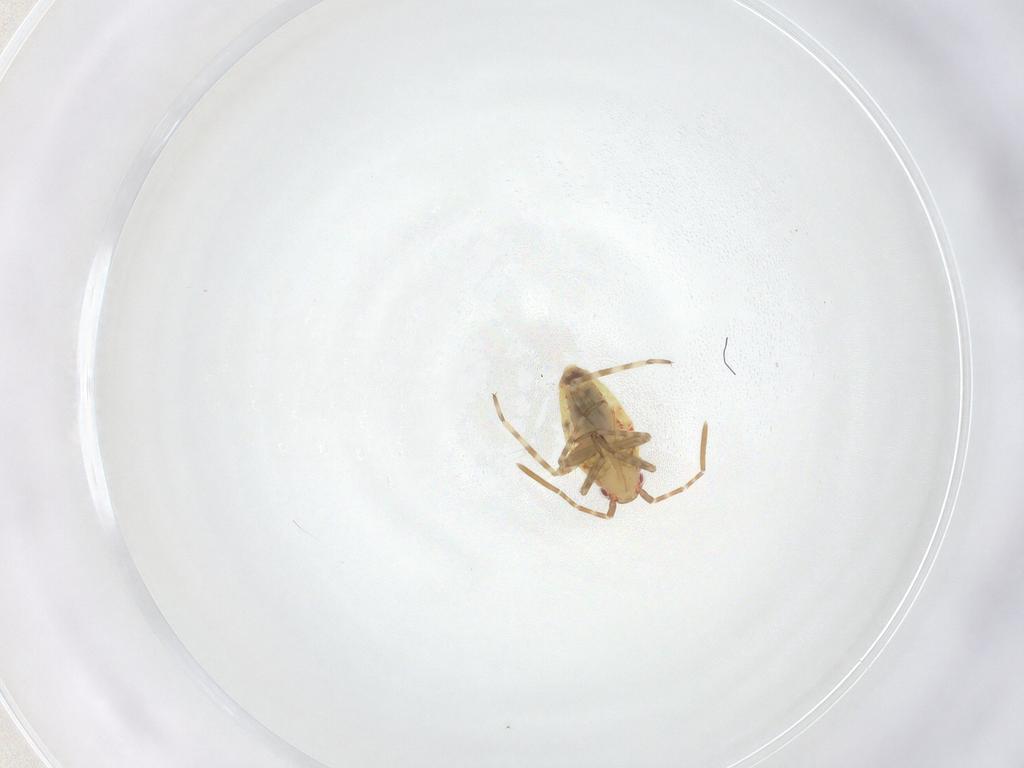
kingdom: Animalia
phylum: Arthropoda
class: Insecta
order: Hemiptera
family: Miridae
